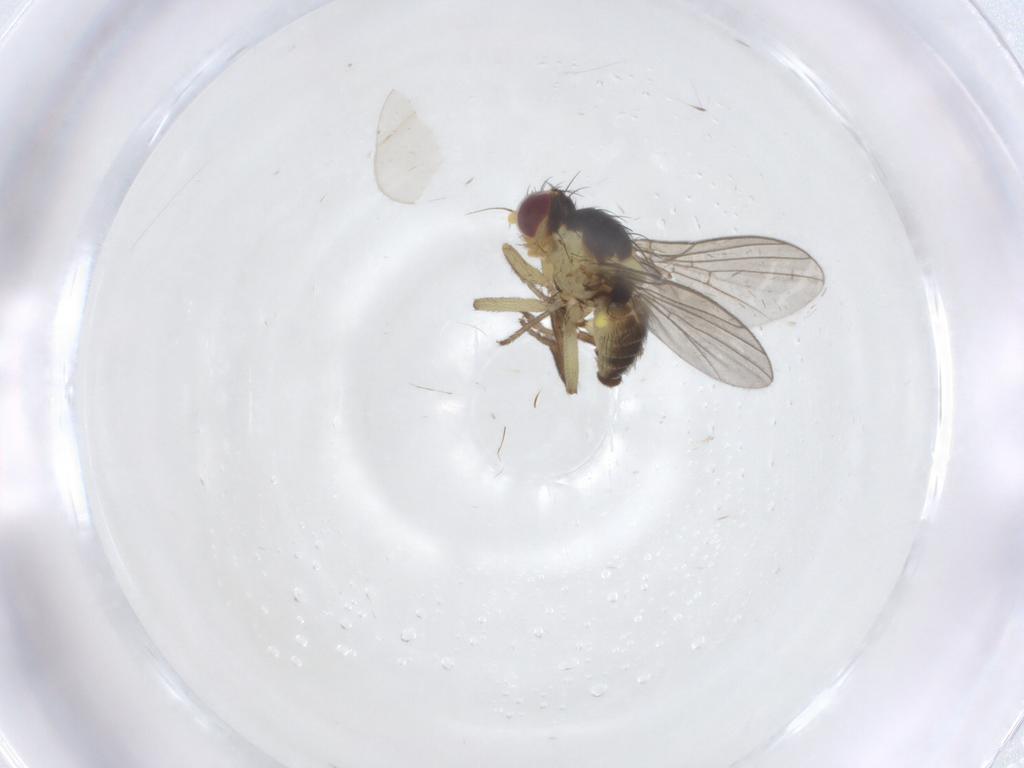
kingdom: Animalia
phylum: Arthropoda
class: Insecta
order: Diptera
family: Agromyzidae
